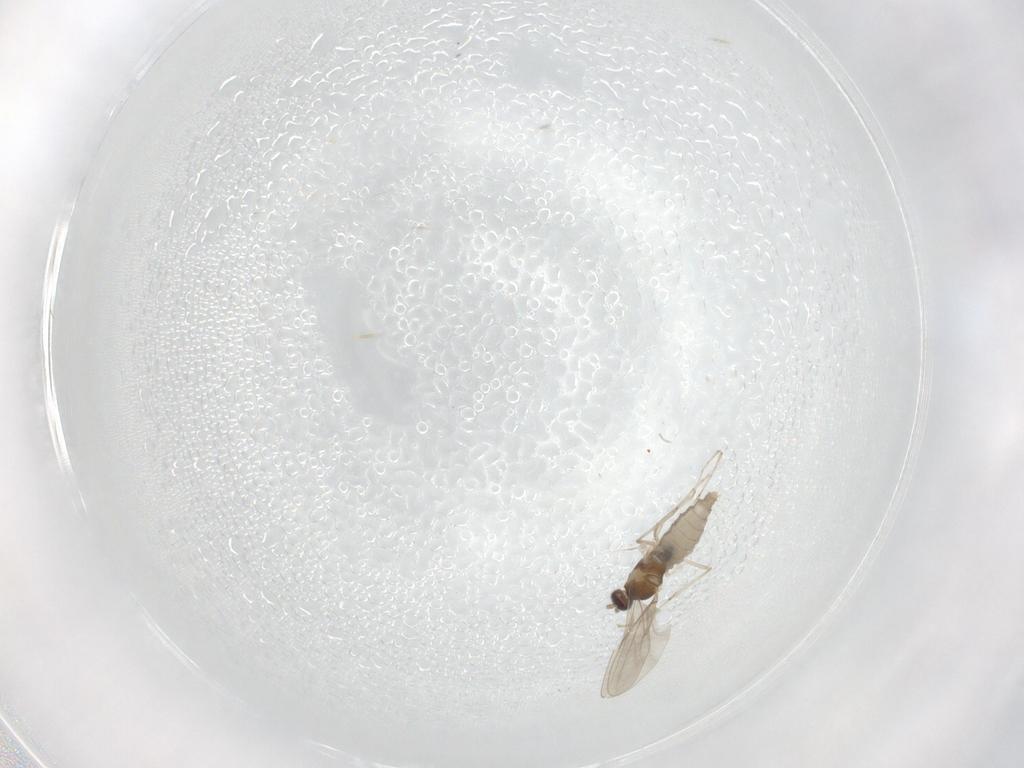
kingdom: Animalia
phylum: Arthropoda
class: Insecta
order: Diptera
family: Cecidomyiidae
